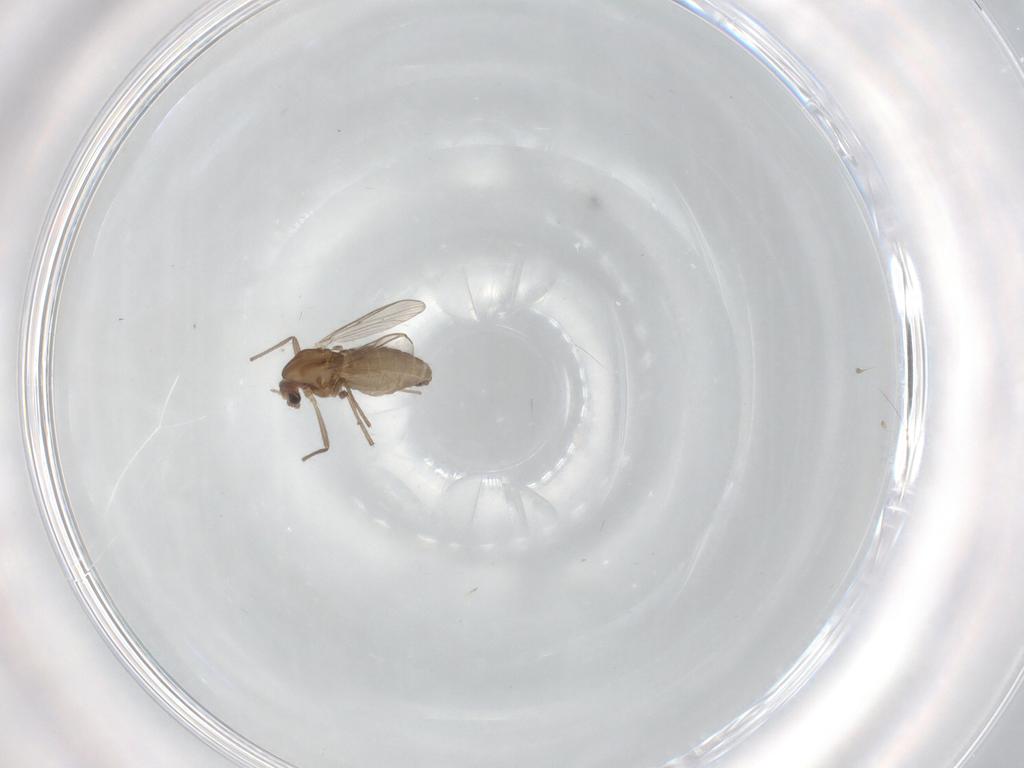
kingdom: Animalia
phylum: Arthropoda
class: Insecta
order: Diptera
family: Chironomidae
